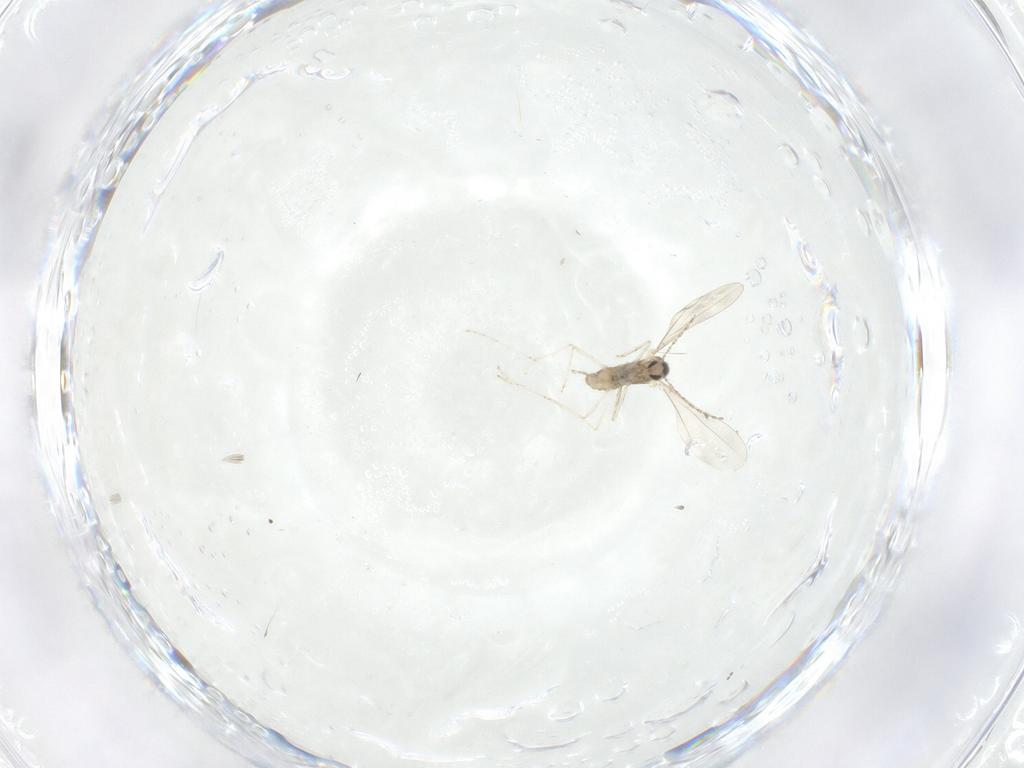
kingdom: Animalia
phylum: Arthropoda
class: Insecta
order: Diptera
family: Cecidomyiidae
